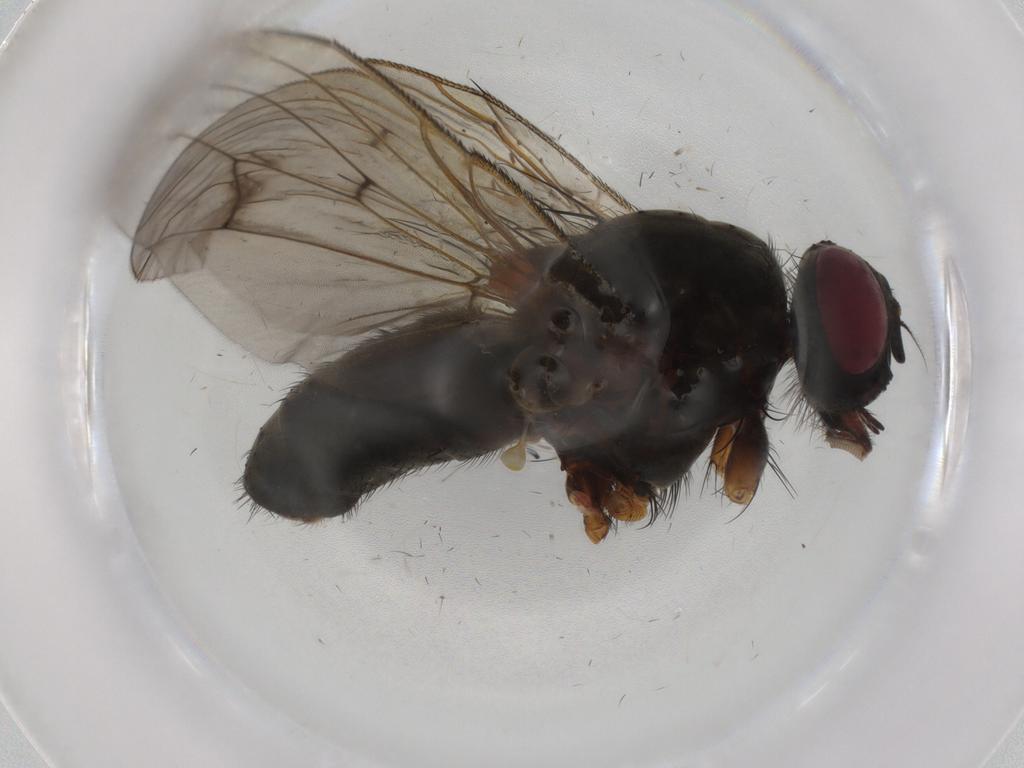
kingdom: Animalia
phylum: Arthropoda
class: Insecta
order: Diptera
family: Muscidae
